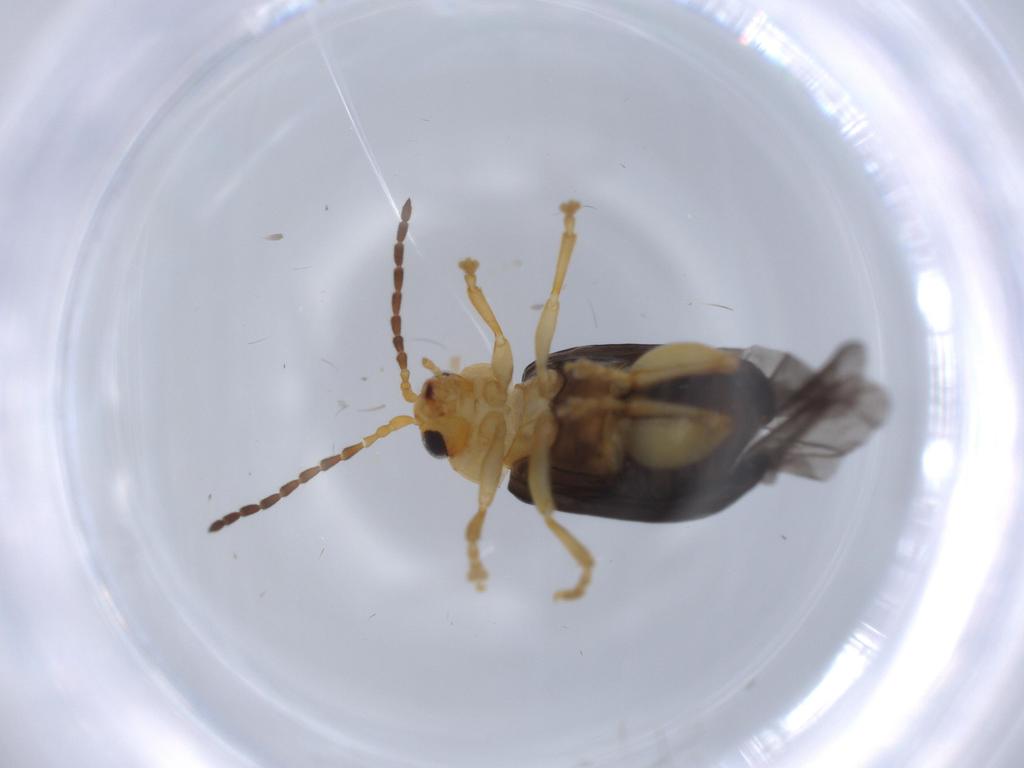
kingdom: Animalia
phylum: Arthropoda
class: Insecta
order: Coleoptera
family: Chrysomelidae
